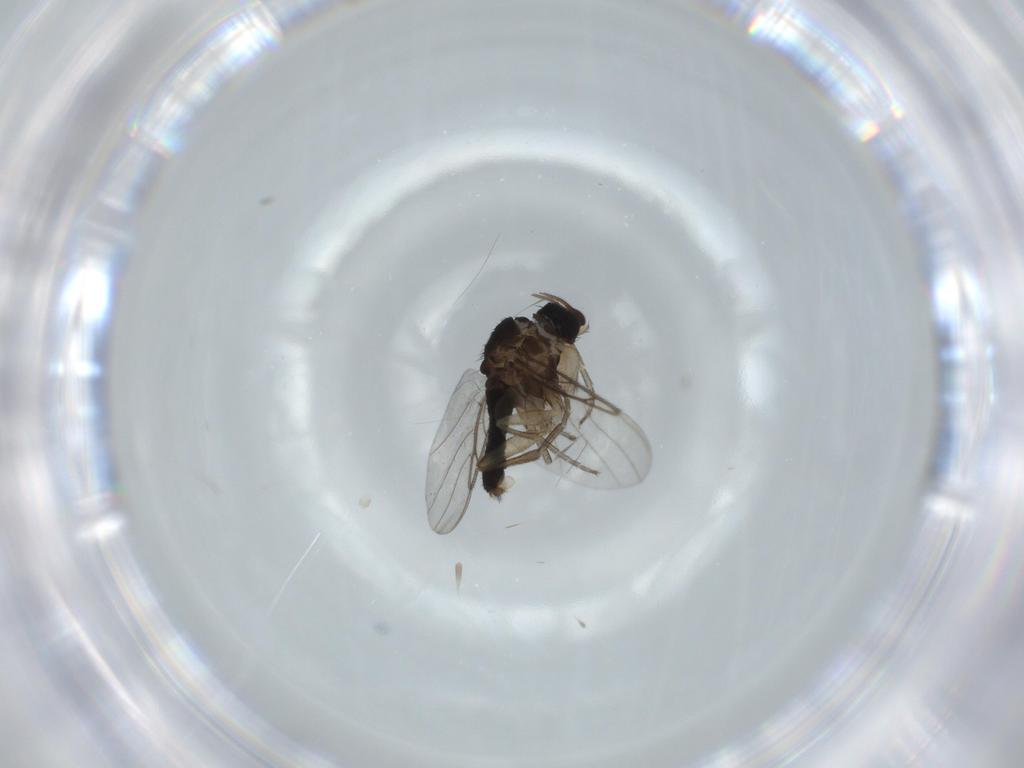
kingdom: Animalia
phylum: Arthropoda
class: Insecta
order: Diptera
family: Phoridae
